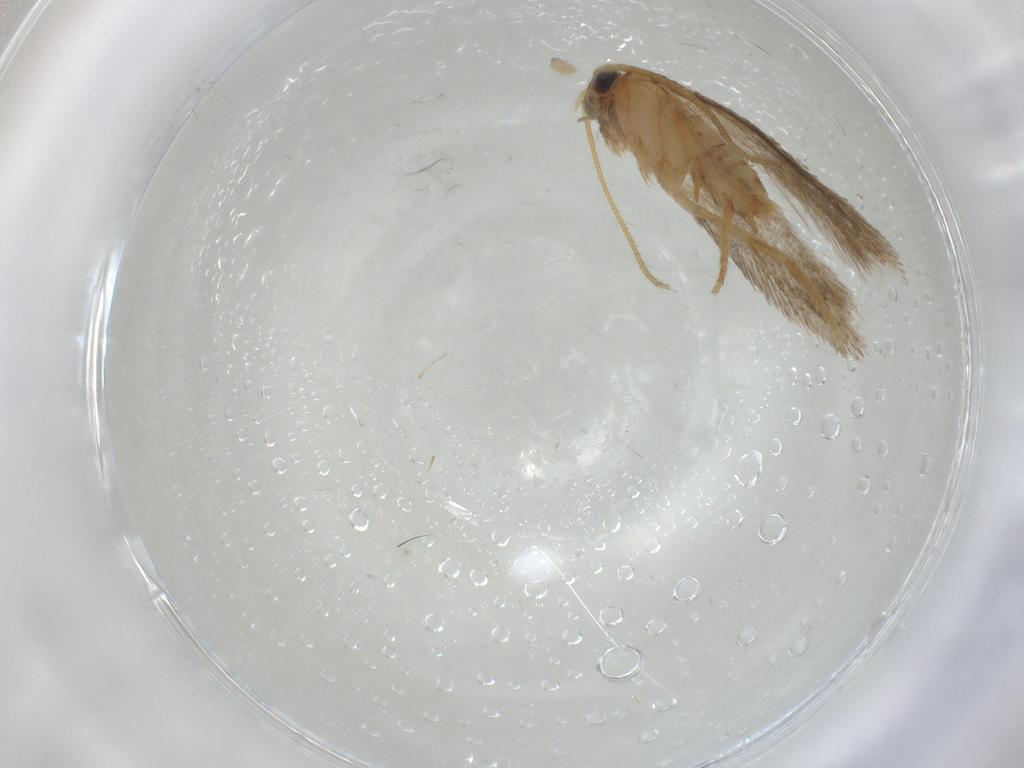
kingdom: Animalia
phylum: Arthropoda
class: Insecta
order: Lepidoptera
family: Nepticulidae
